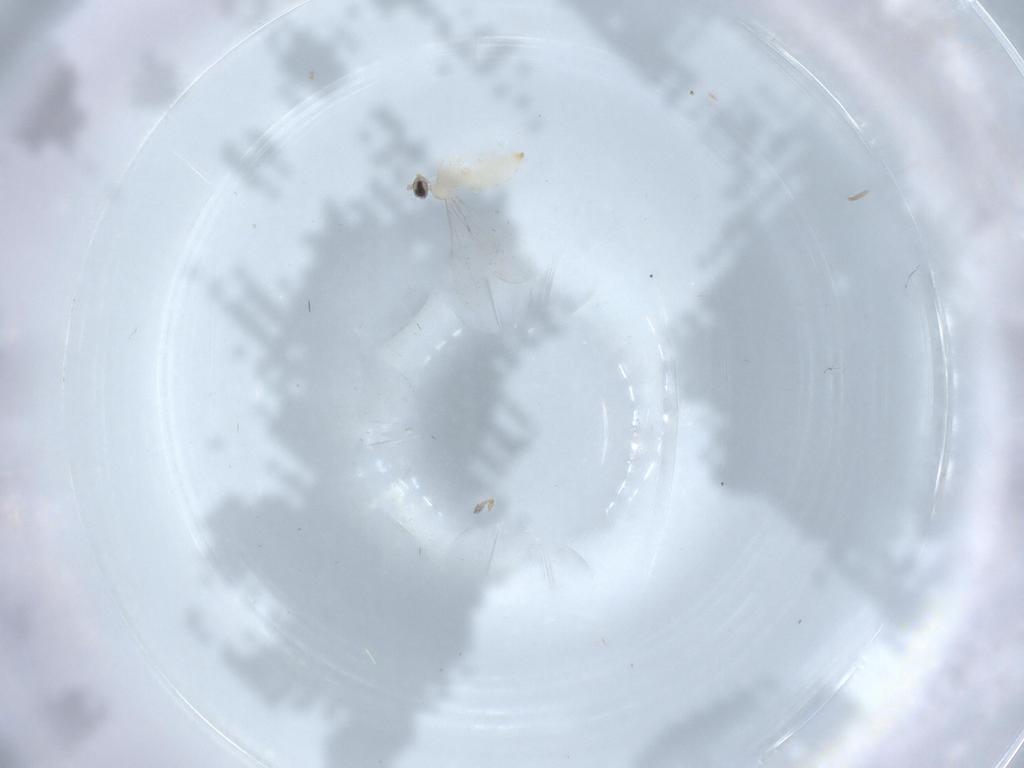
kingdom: Animalia
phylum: Arthropoda
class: Insecta
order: Diptera
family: Cecidomyiidae
